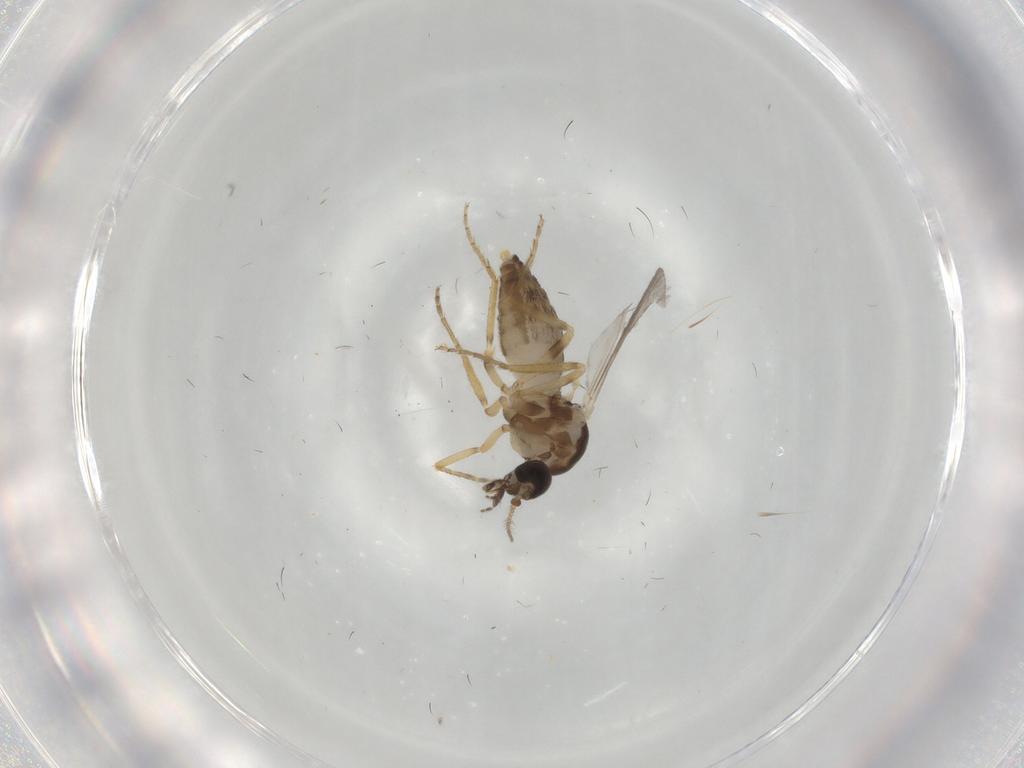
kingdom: Animalia
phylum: Arthropoda
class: Insecta
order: Diptera
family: Ceratopogonidae
